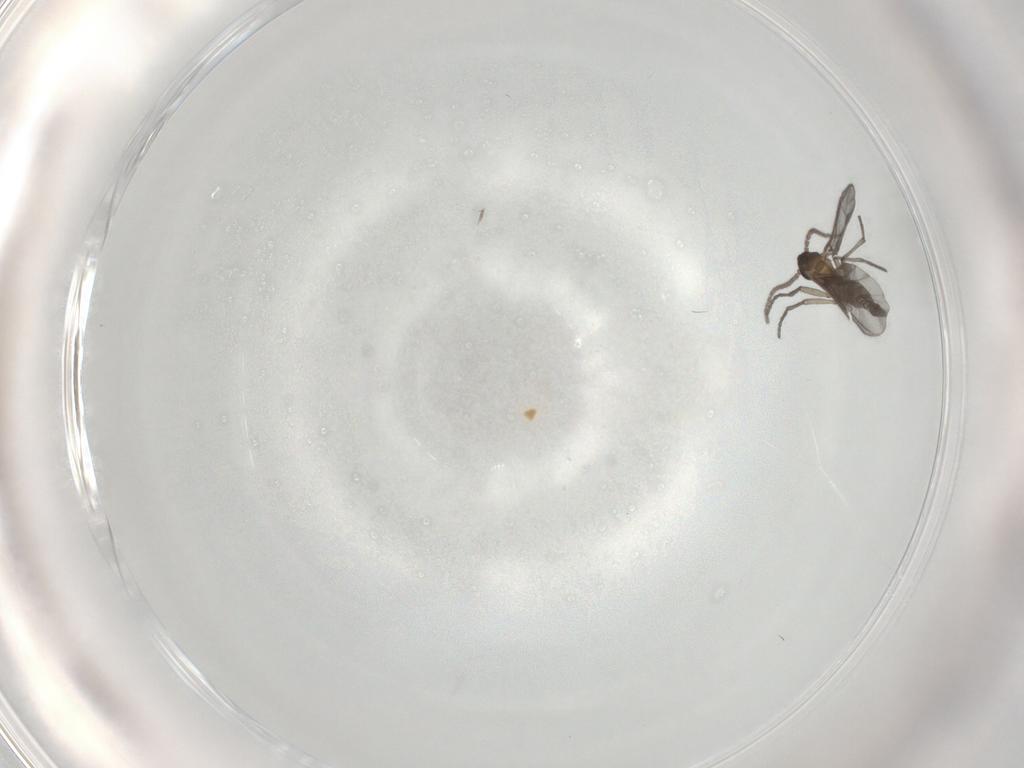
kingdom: Animalia
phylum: Arthropoda
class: Insecta
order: Diptera
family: Sciaridae
